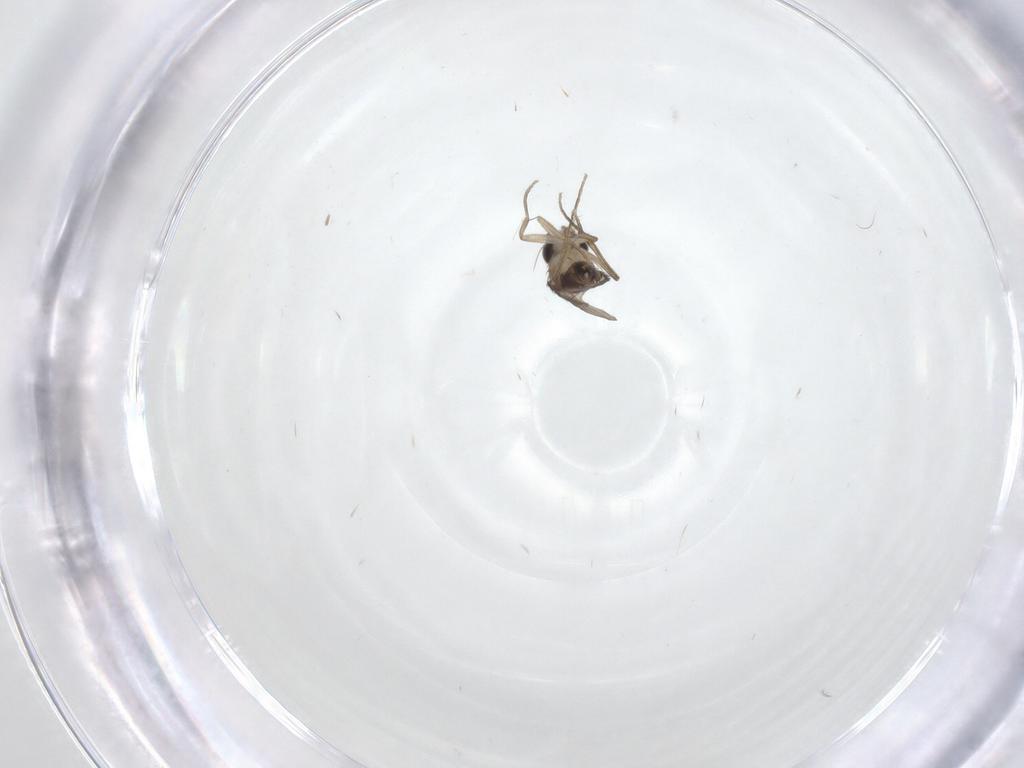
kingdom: Animalia
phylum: Arthropoda
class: Insecta
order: Diptera
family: Phoridae
